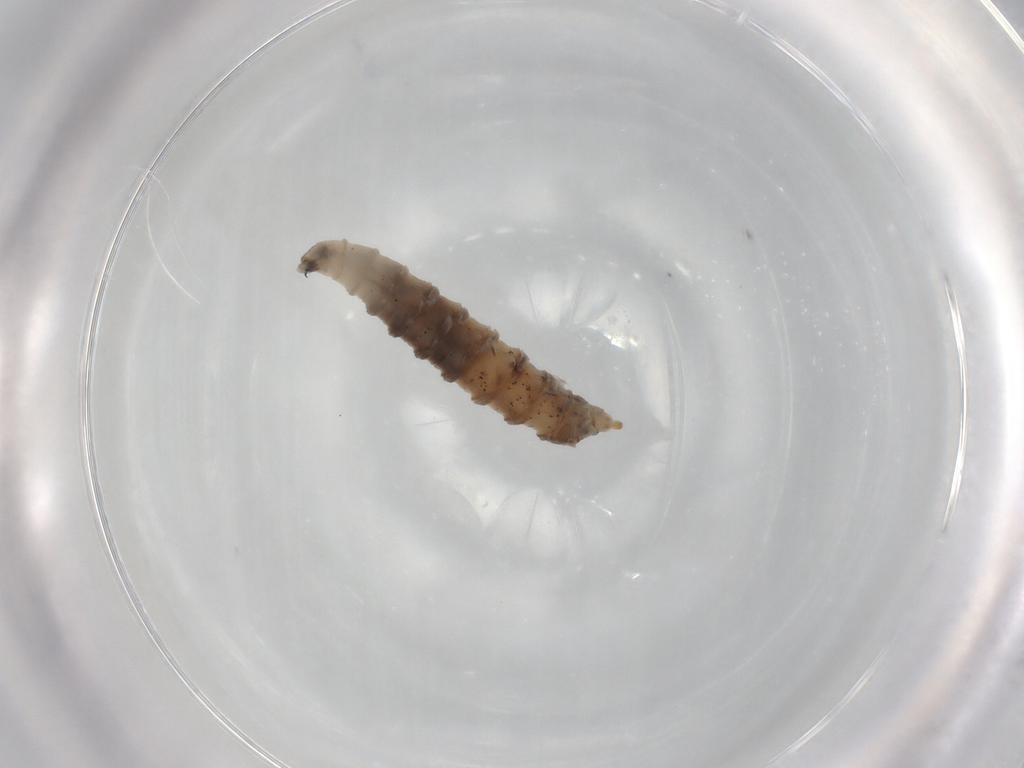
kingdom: Animalia
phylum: Arthropoda
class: Insecta
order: Diptera
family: Drosophilidae
